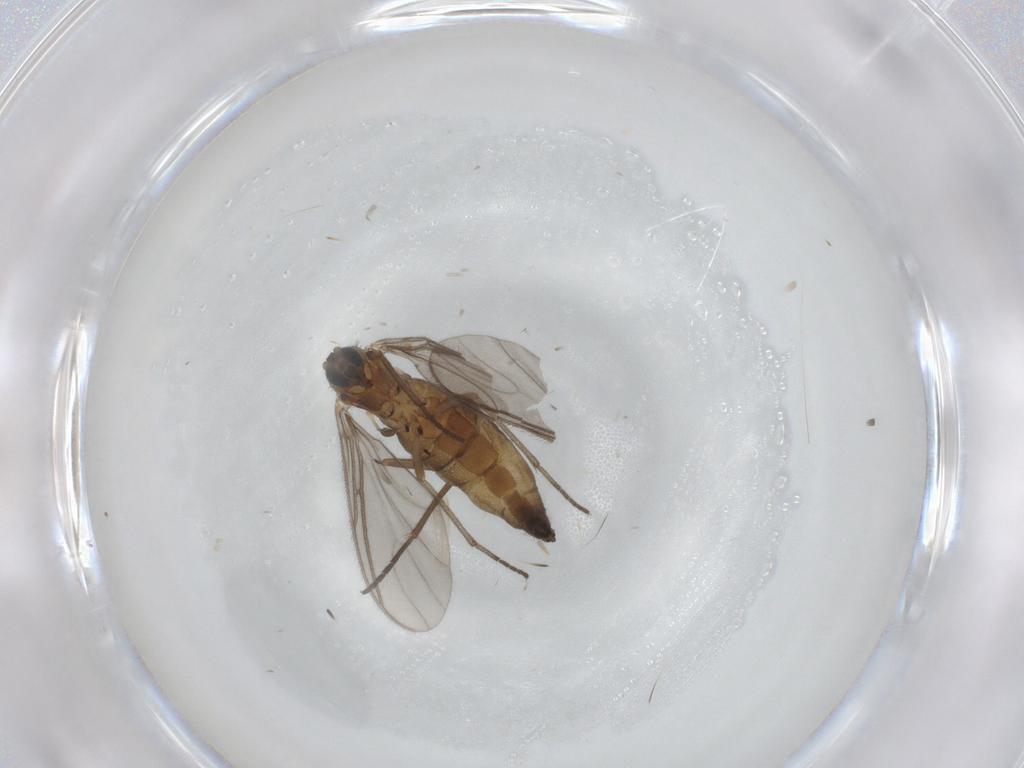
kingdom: Animalia
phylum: Arthropoda
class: Insecta
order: Diptera
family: Sciaridae
